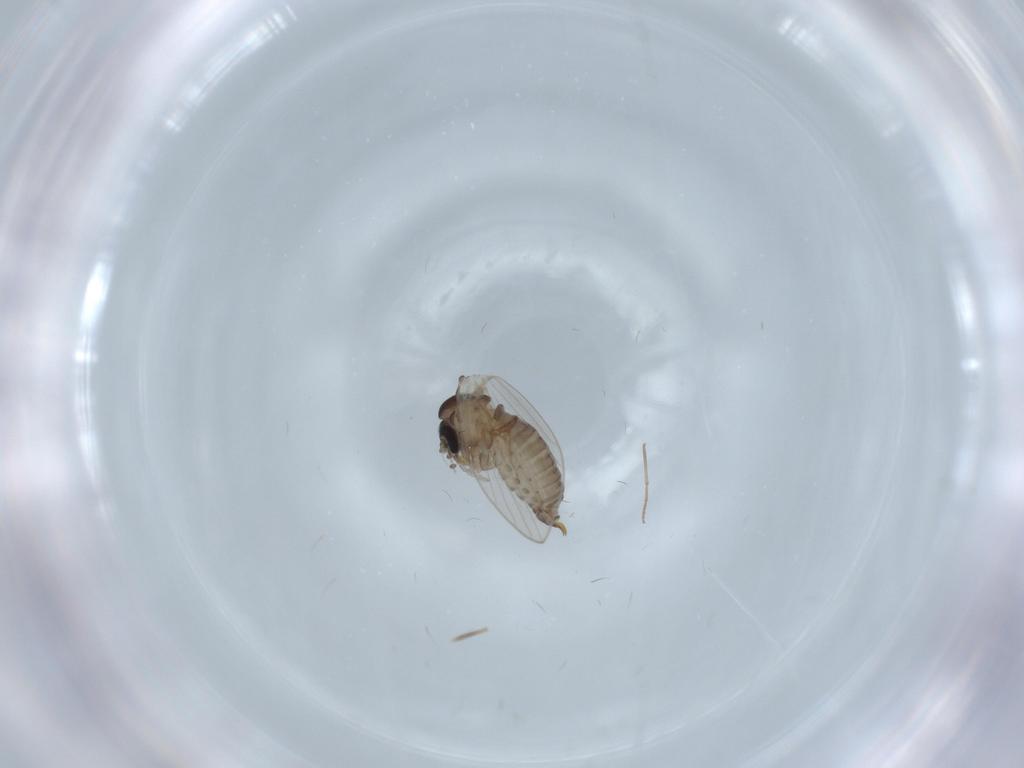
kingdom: Animalia
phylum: Arthropoda
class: Insecta
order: Diptera
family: Psychodidae
